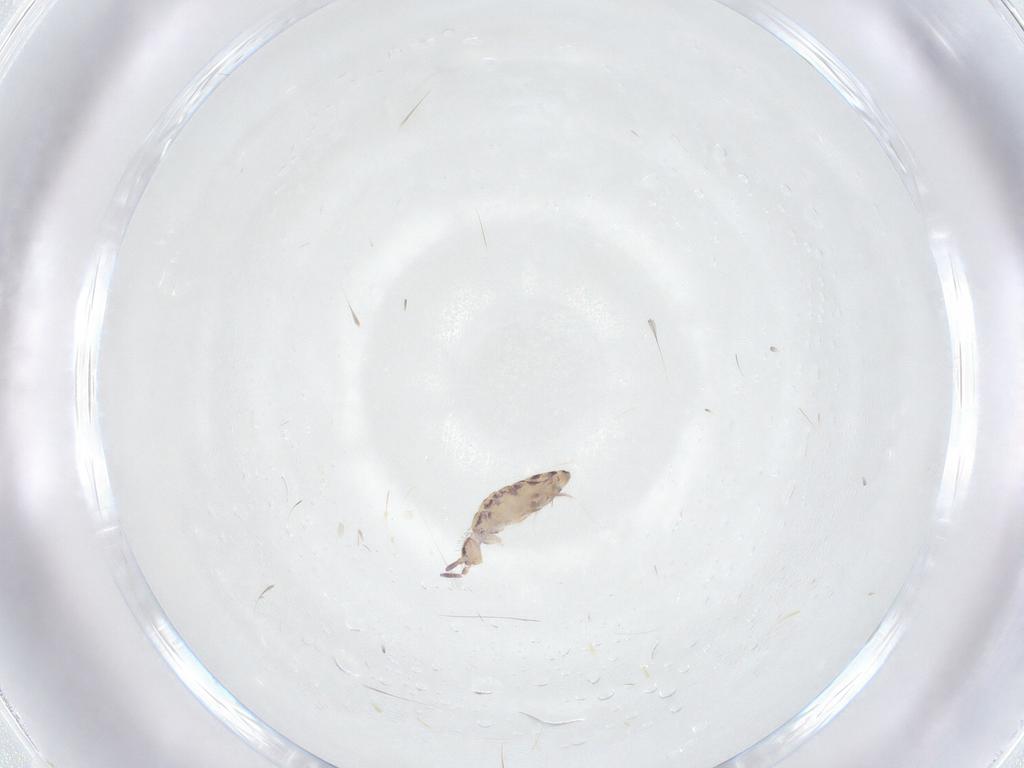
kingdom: Animalia
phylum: Arthropoda
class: Collembola
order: Entomobryomorpha
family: Entomobryidae
